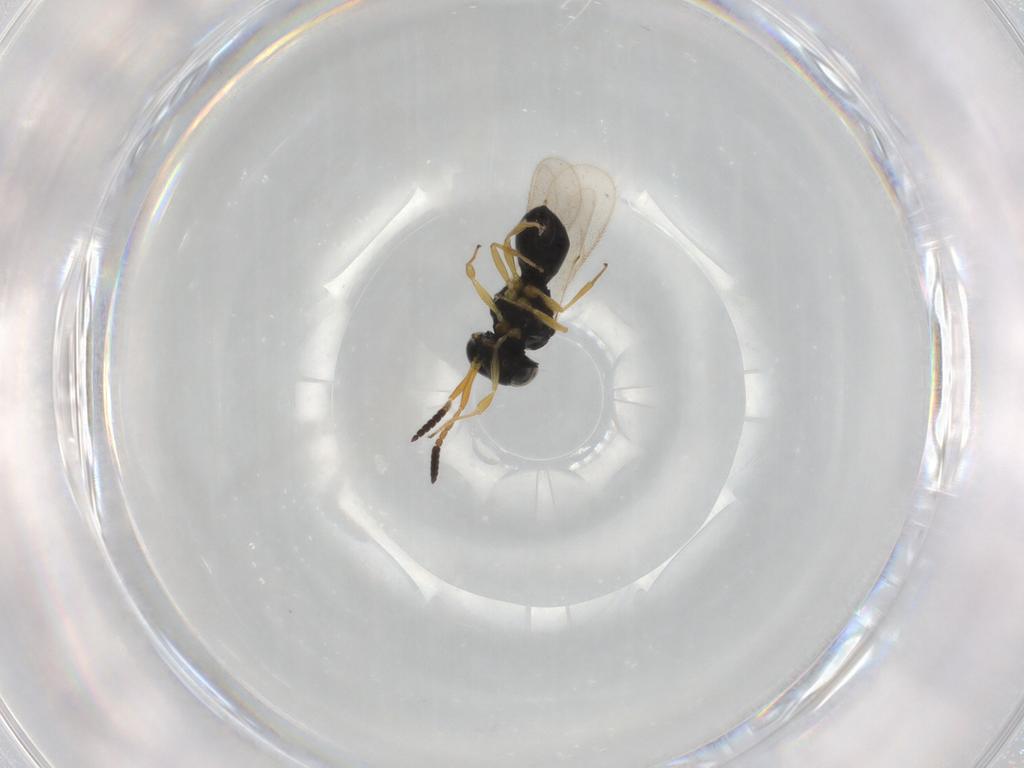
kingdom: Animalia
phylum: Arthropoda
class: Insecta
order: Hymenoptera
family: Scelionidae
